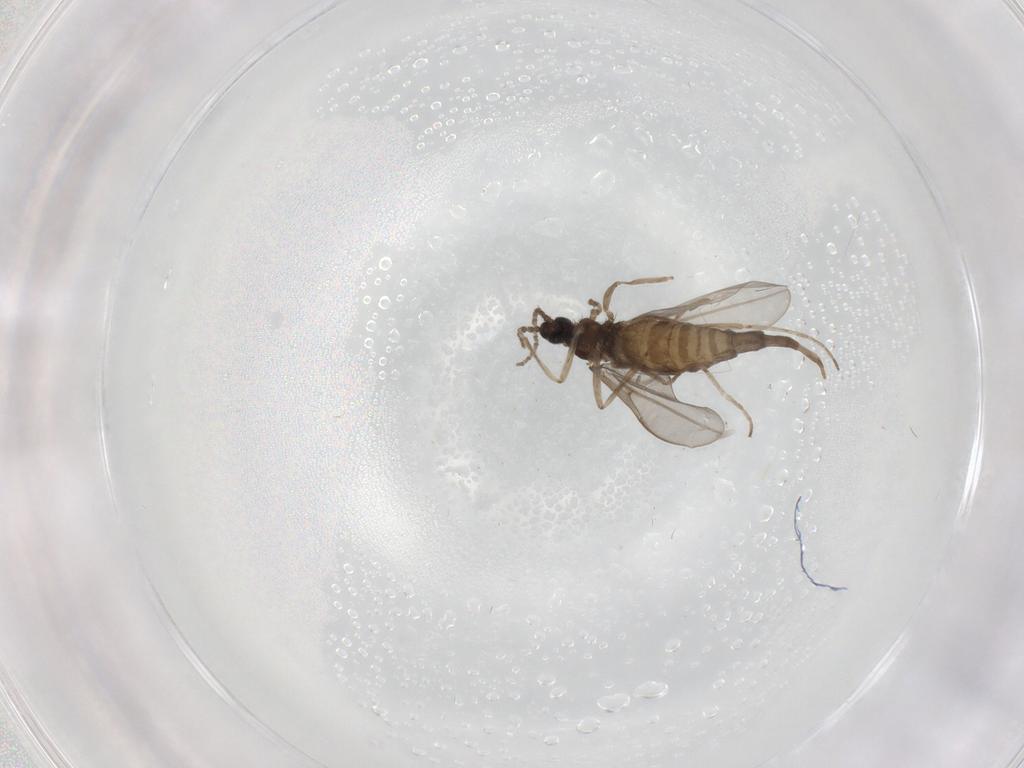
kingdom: Animalia
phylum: Arthropoda
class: Insecta
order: Diptera
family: Cecidomyiidae
